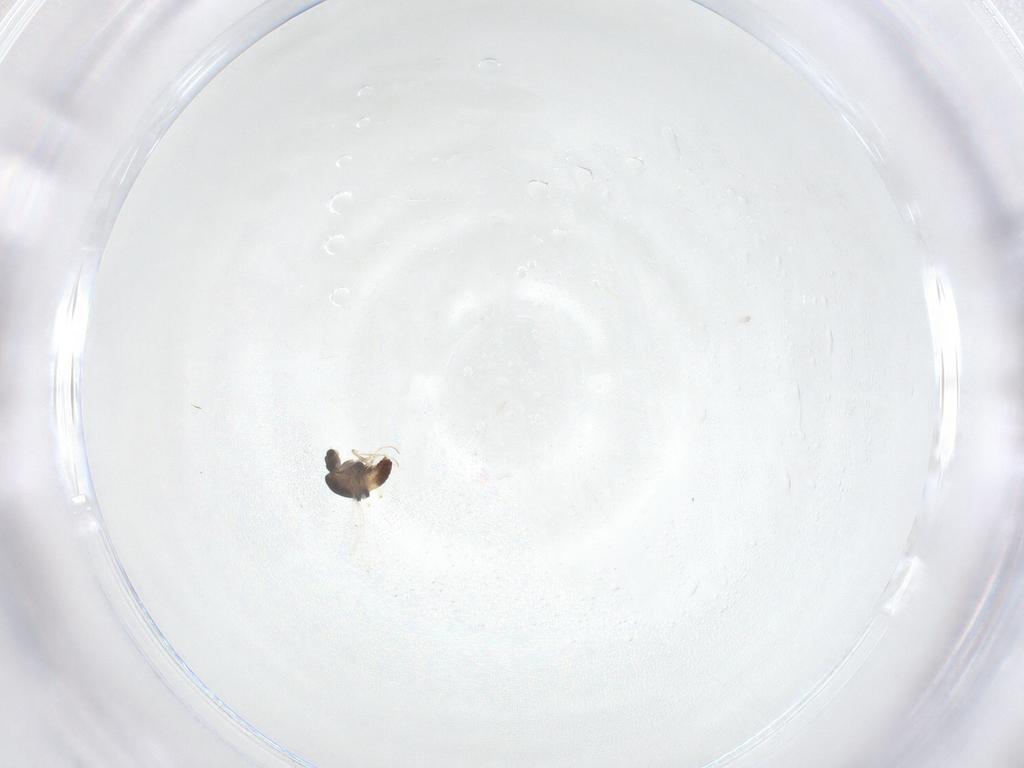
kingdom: Animalia
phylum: Arthropoda
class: Insecta
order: Diptera
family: Chironomidae
